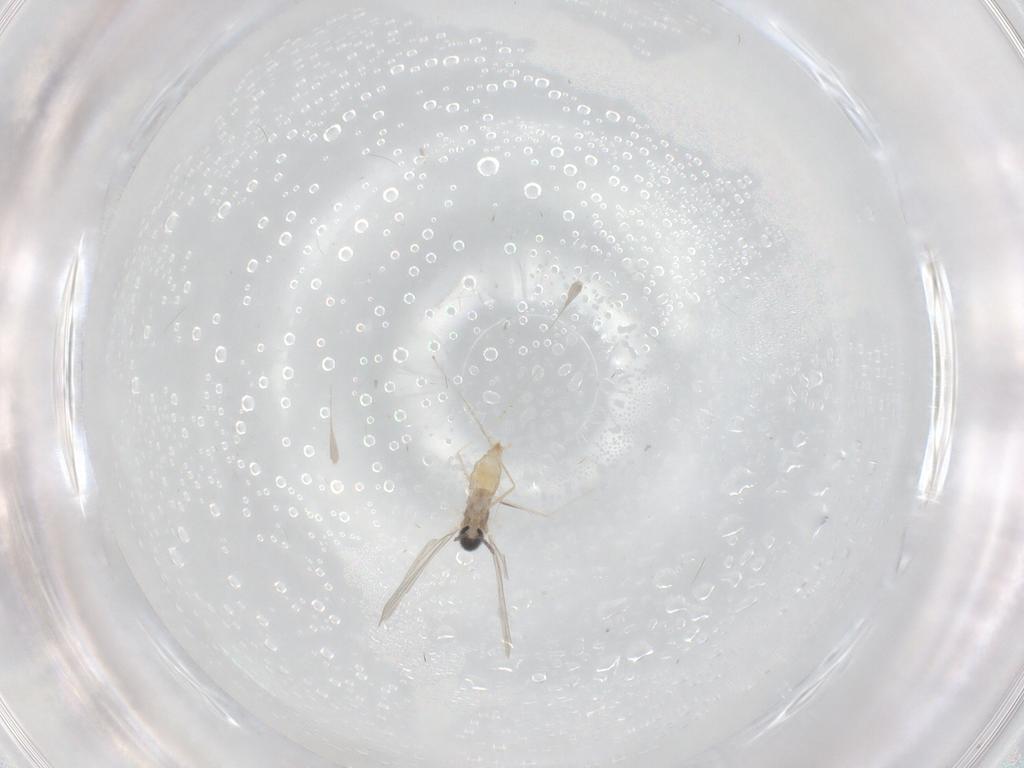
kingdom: Animalia
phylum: Arthropoda
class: Insecta
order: Diptera
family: Cecidomyiidae
